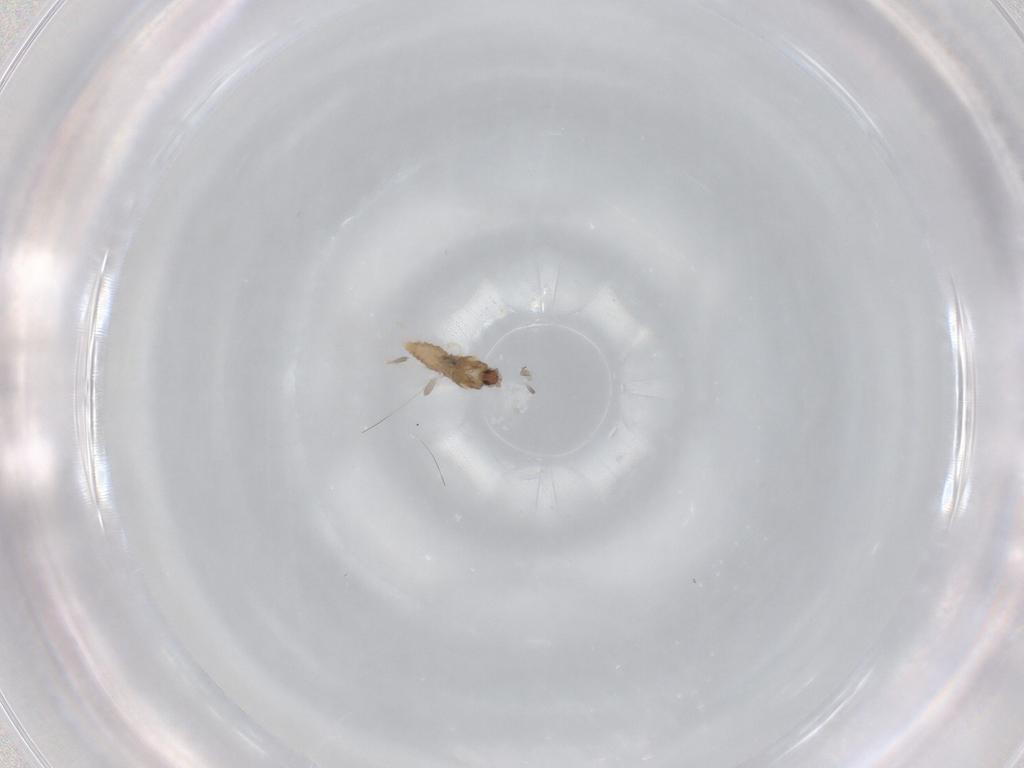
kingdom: Animalia
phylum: Arthropoda
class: Insecta
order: Diptera
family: Cecidomyiidae
